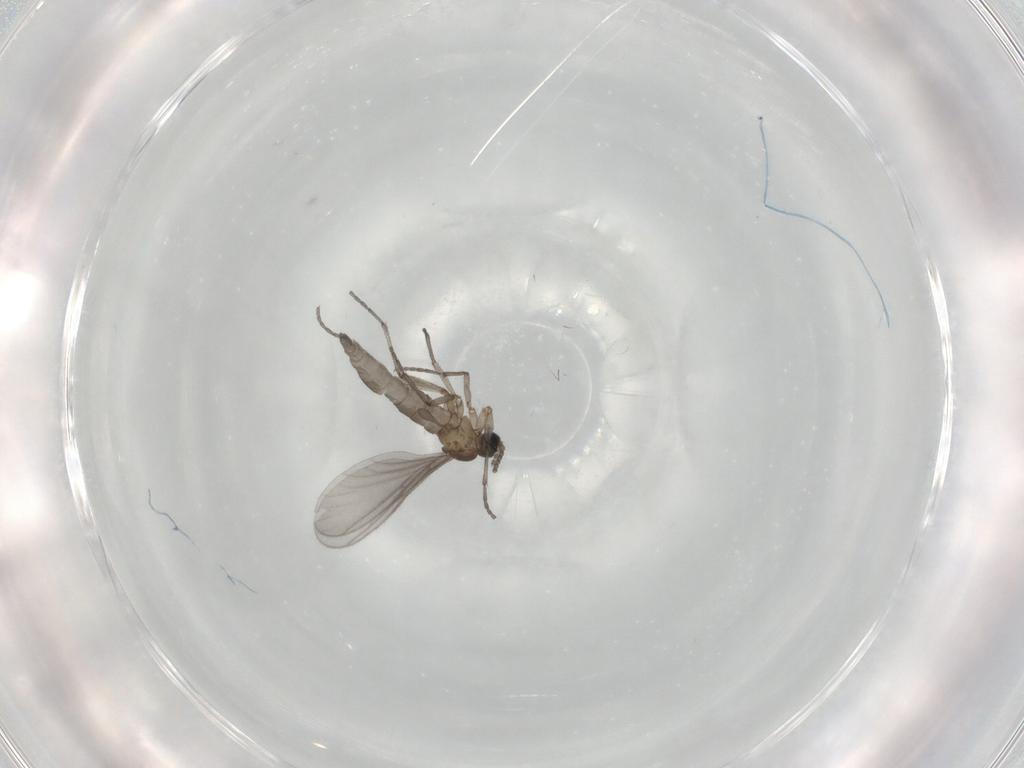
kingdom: Animalia
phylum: Arthropoda
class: Insecta
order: Diptera
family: Sciaridae
